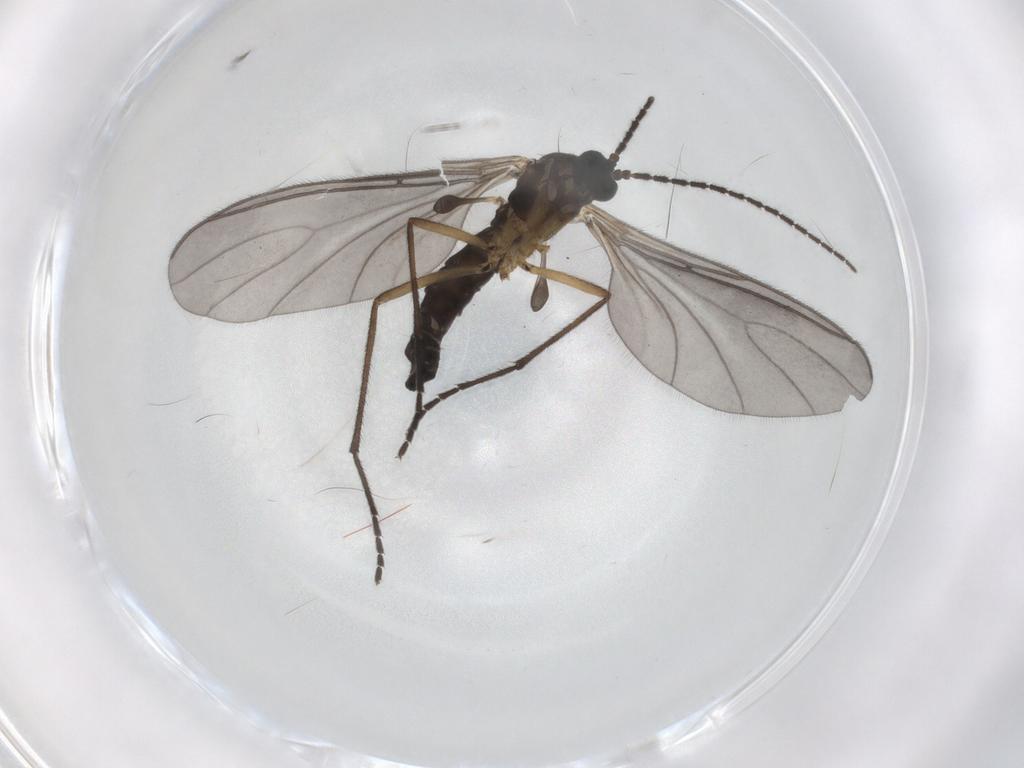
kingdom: Animalia
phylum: Arthropoda
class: Insecta
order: Diptera
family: Sciaridae
